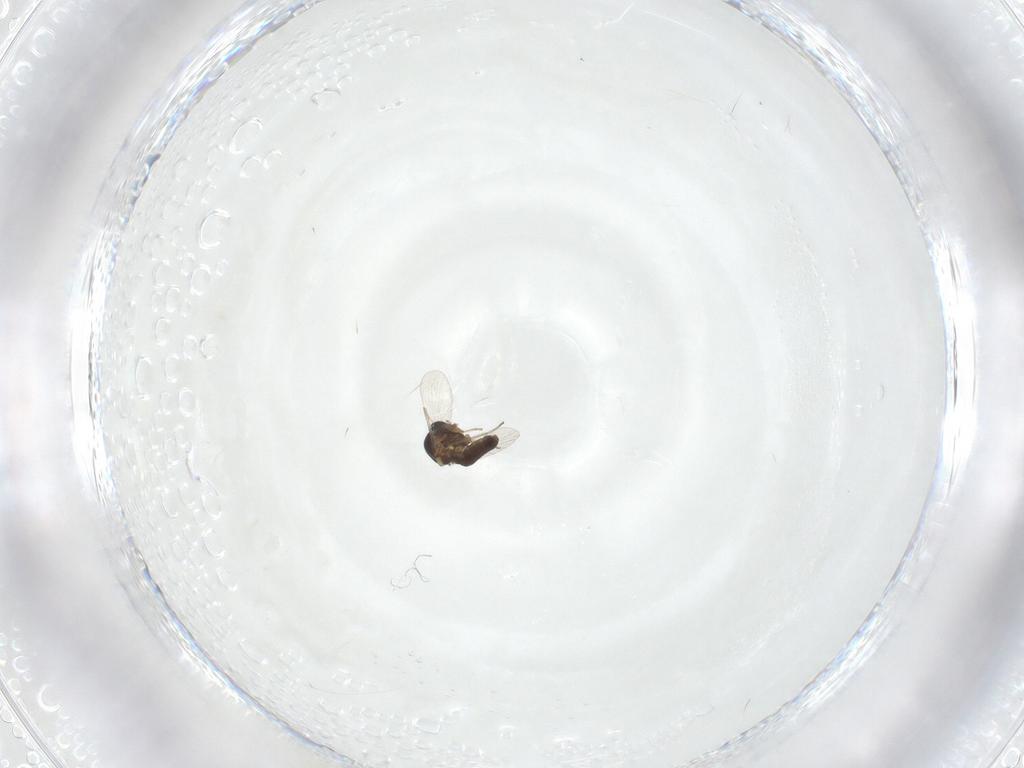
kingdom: Animalia
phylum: Arthropoda
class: Insecta
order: Diptera
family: Ceratopogonidae
